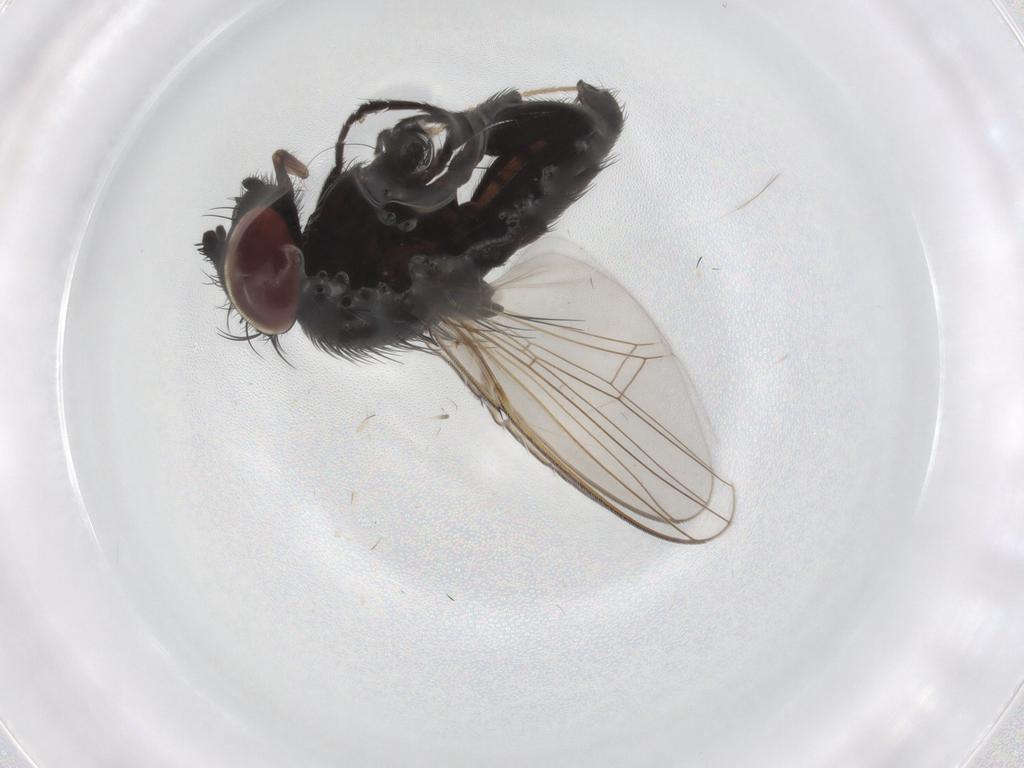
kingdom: Animalia
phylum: Arthropoda
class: Insecta
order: Diptera
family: Milichiidae
